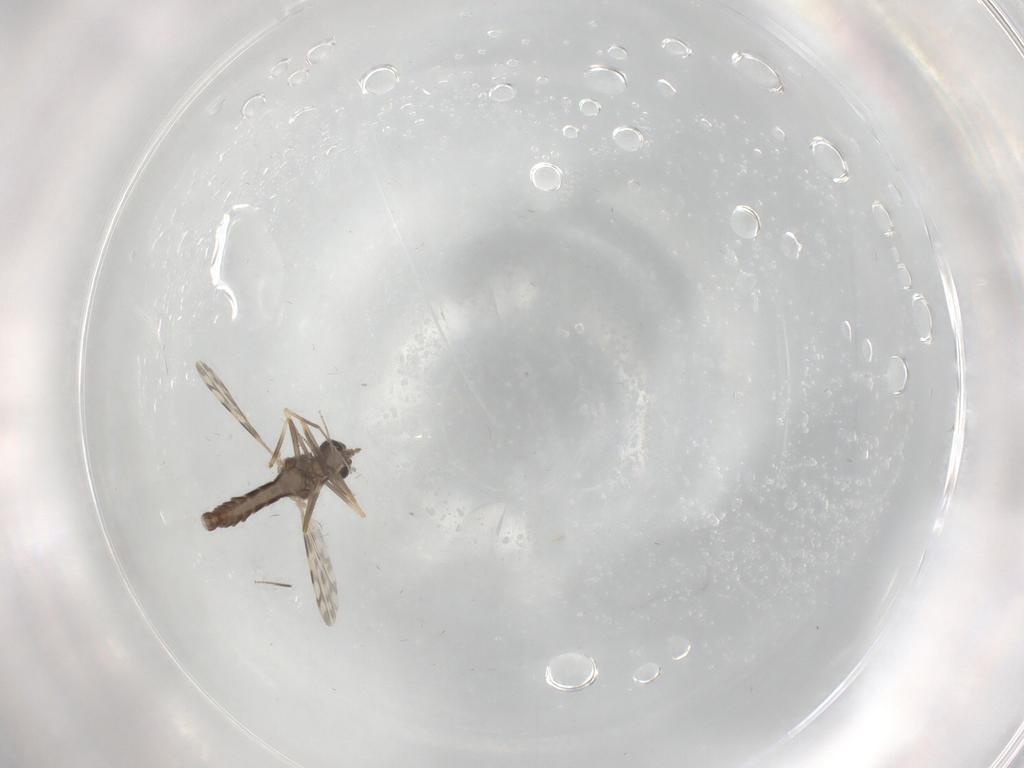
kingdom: Animalia
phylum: Arthropoda
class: Insecta
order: Diptera
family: Ceratopogonidae
